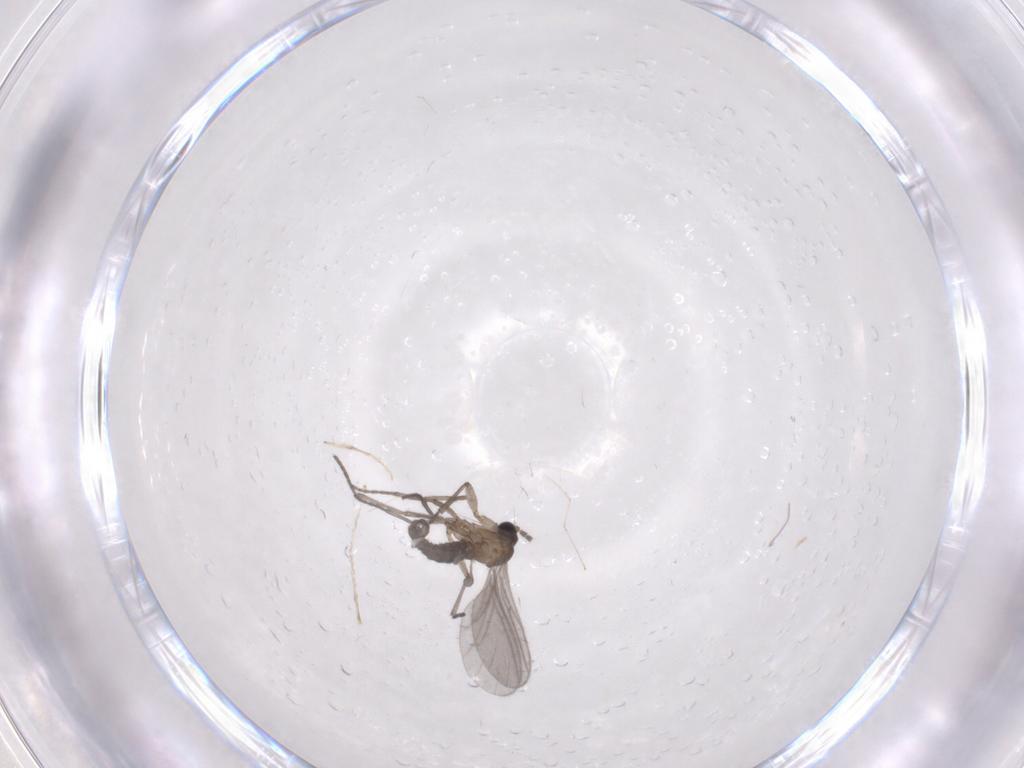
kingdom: Animalia
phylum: Arthropoda
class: Insecta
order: Diptera
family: Sciaridae
